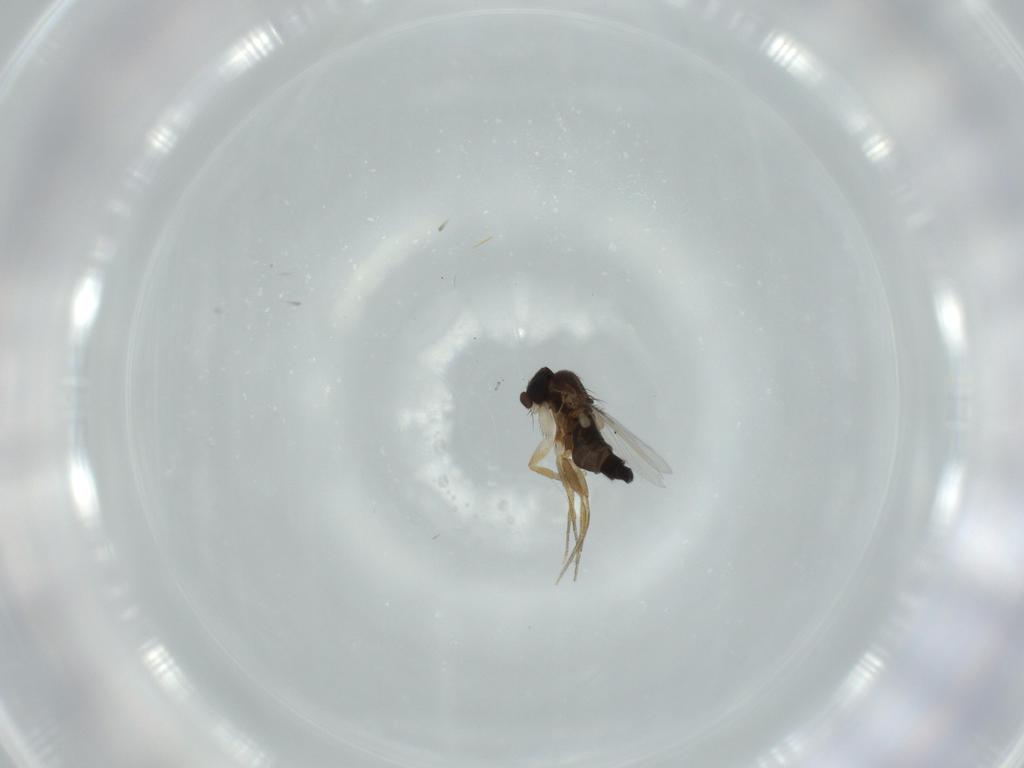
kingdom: Animalia
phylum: Arthropoda
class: Insecta
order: Diptera
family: Phoridae
